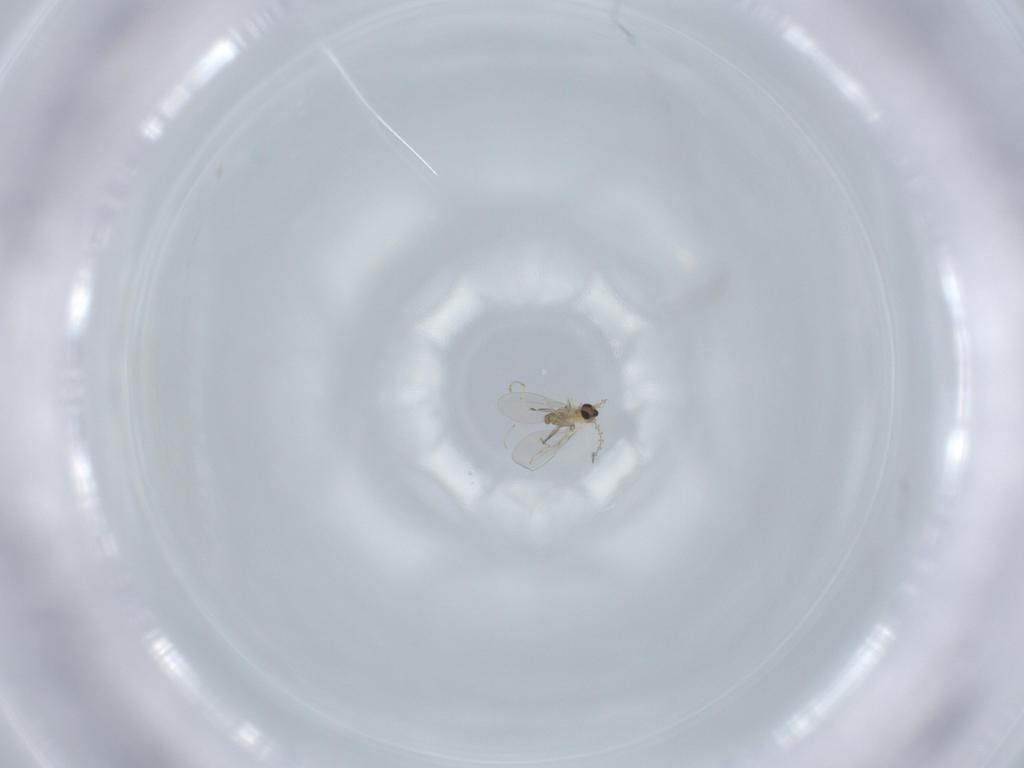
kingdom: Animalia
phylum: Arthropoda
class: Insecta
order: Diptera
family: Cecidomyiidae
